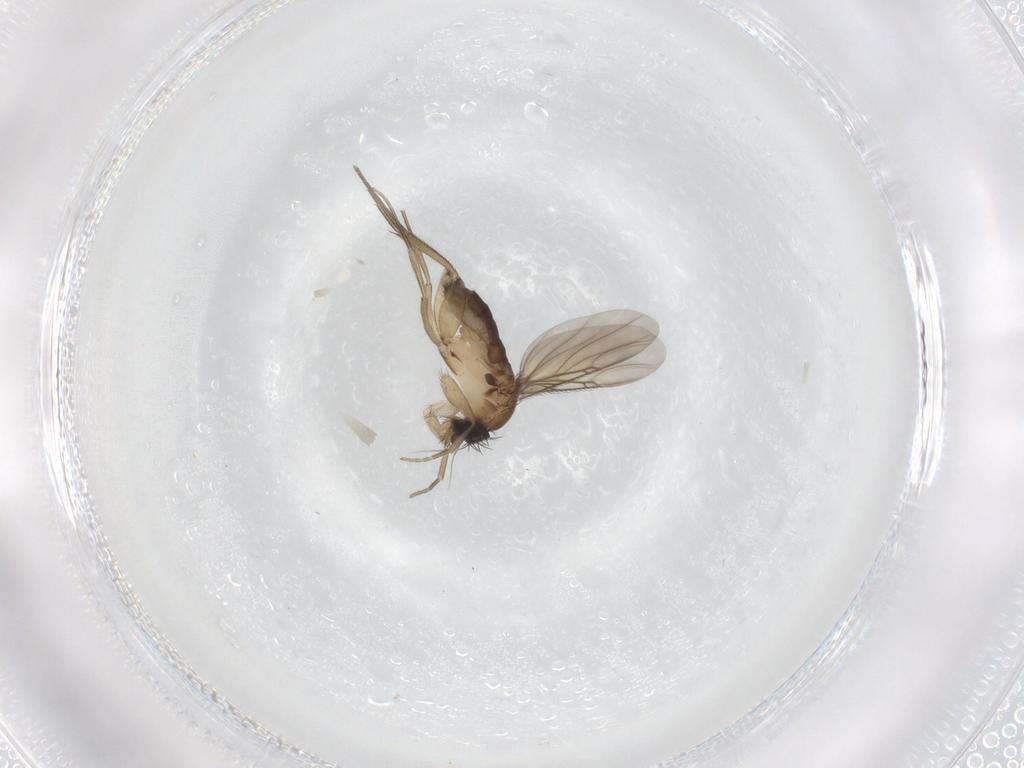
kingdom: Animalia
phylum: Arthropoda
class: Insecta
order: Diptera
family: Phoridae
